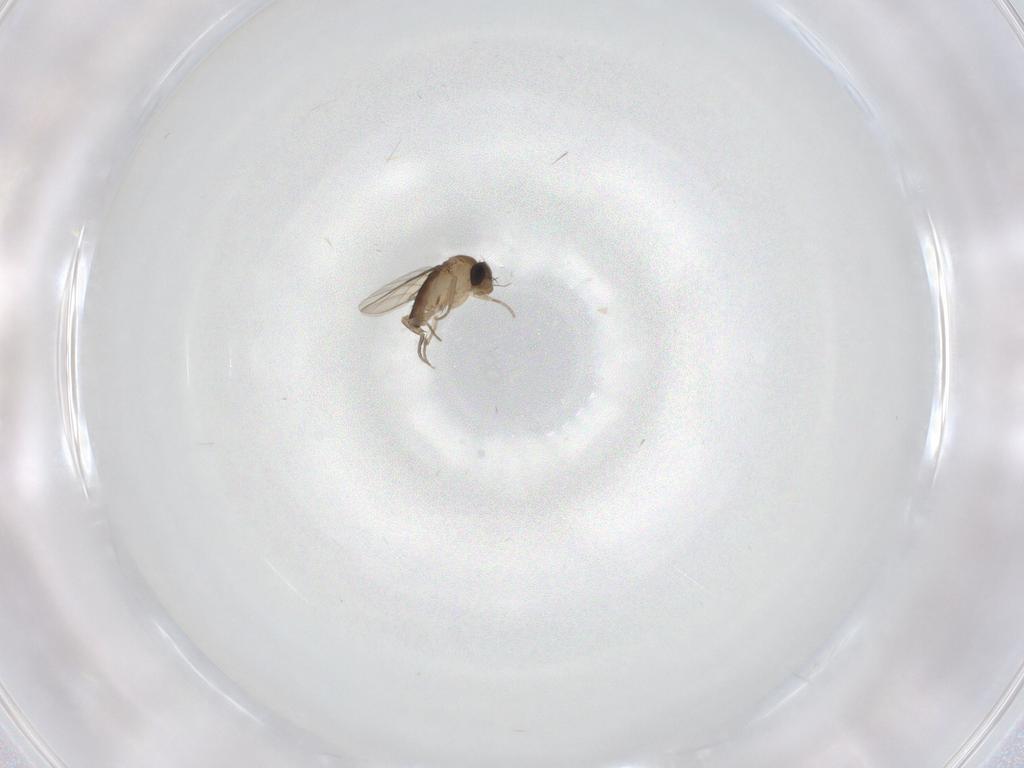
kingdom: Animalia
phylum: Arthropoda
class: Insecta
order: Diptera
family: Phoridae
